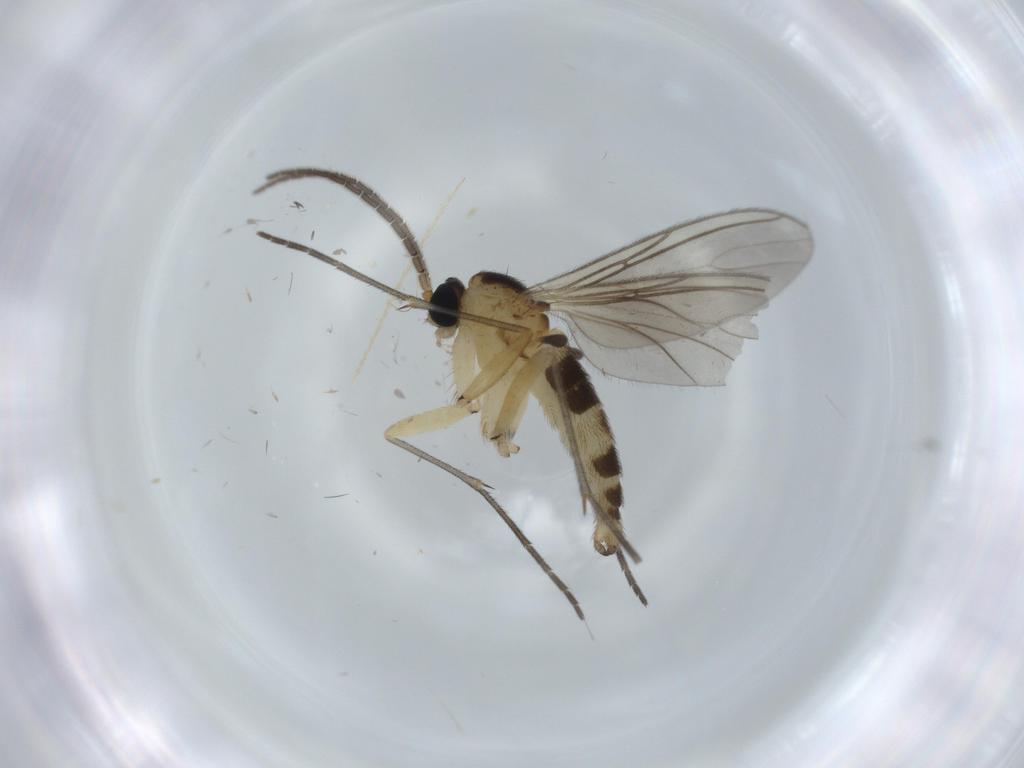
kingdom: Animalia
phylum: Arthropoda
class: Insecta
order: Diptera
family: Sciaridae
